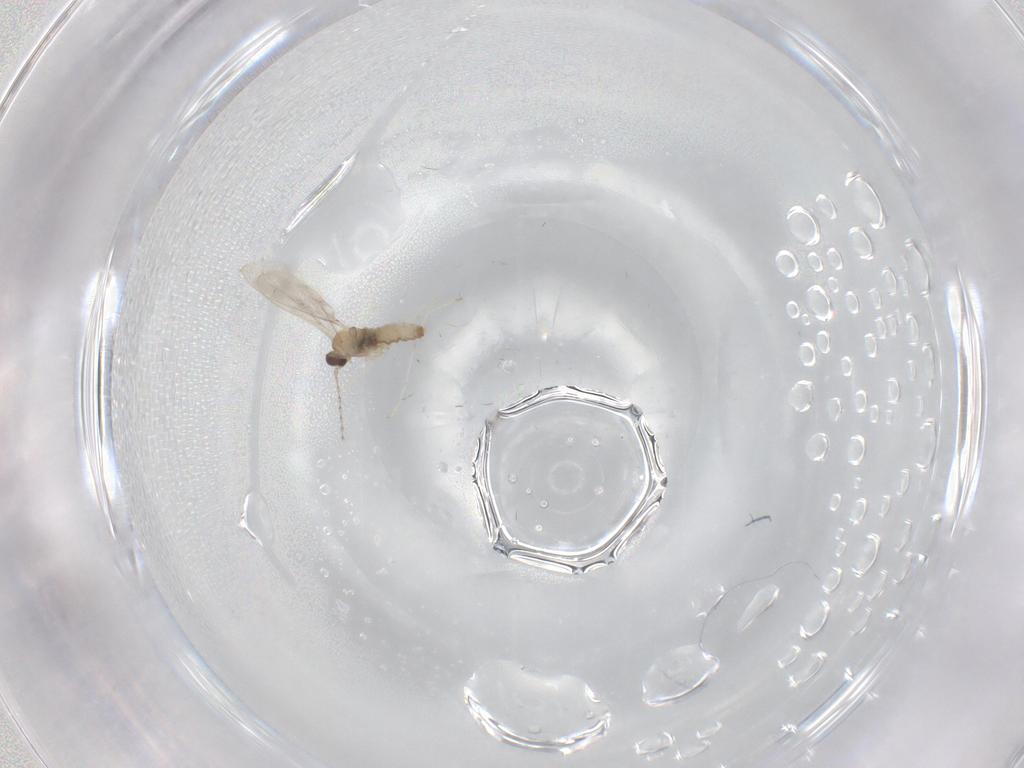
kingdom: Animalia
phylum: Arthropoda
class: Insecta
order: Diptera
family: Cecidomyiidae
